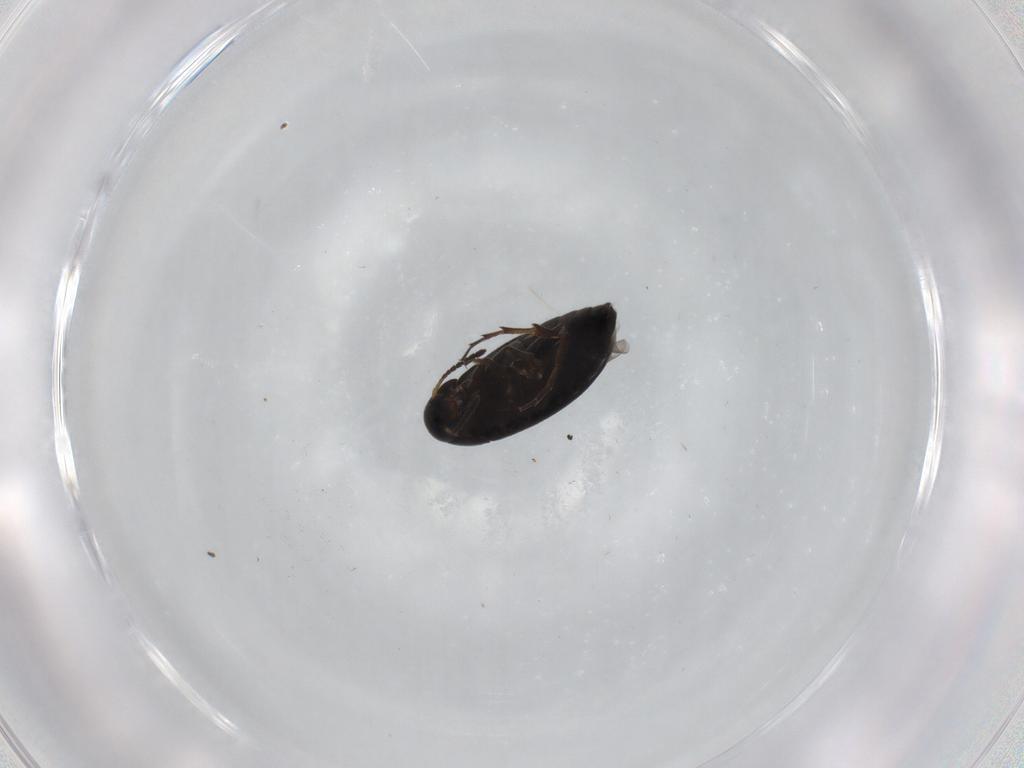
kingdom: Animalia
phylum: Arthropoda
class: Insecta
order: Coleoptera
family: Scraptiidae
